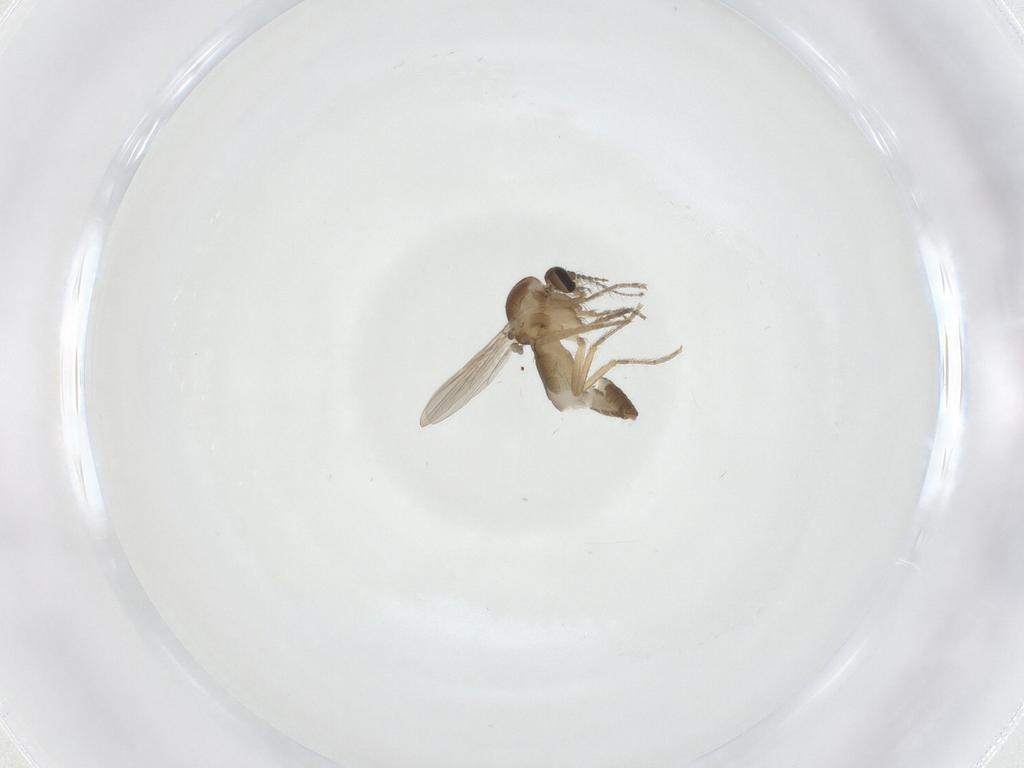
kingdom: Animalia
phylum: Arthropoda
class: Insecta
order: Diptera
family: Ceratopogonidae
